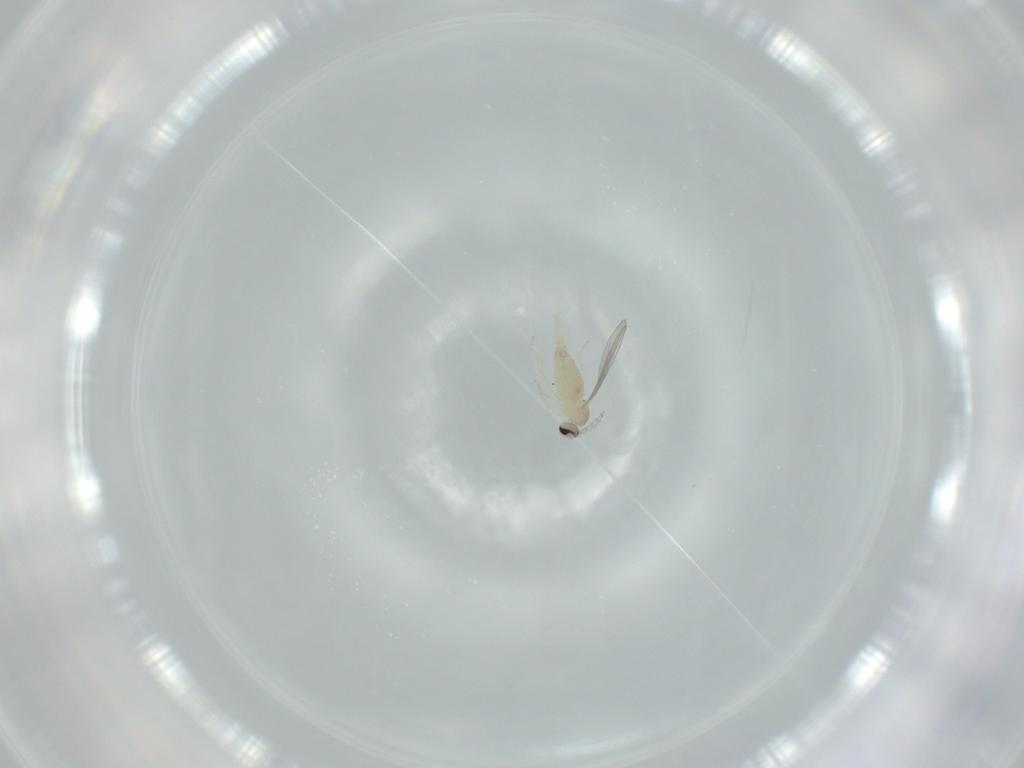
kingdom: Animalia
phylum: Arthropoda
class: Insecta
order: Diptera
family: Cecidomyiidae
